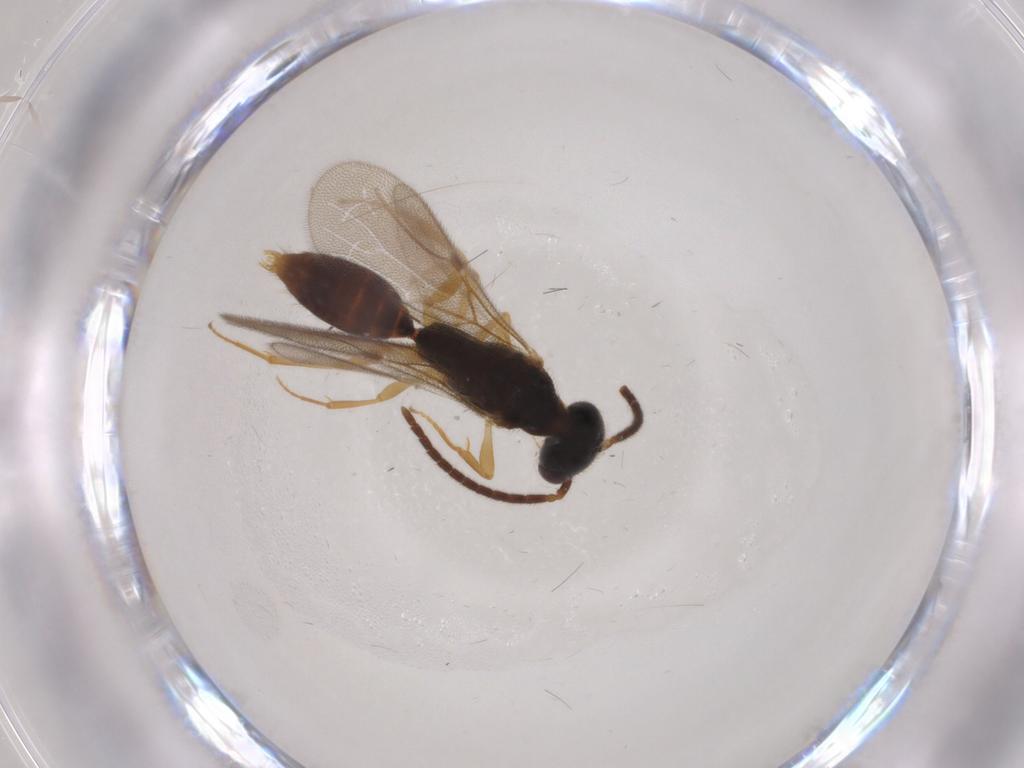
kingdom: Animalia
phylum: Arthropoda
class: Insecta
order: Hymenoptera
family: Bethylidae
